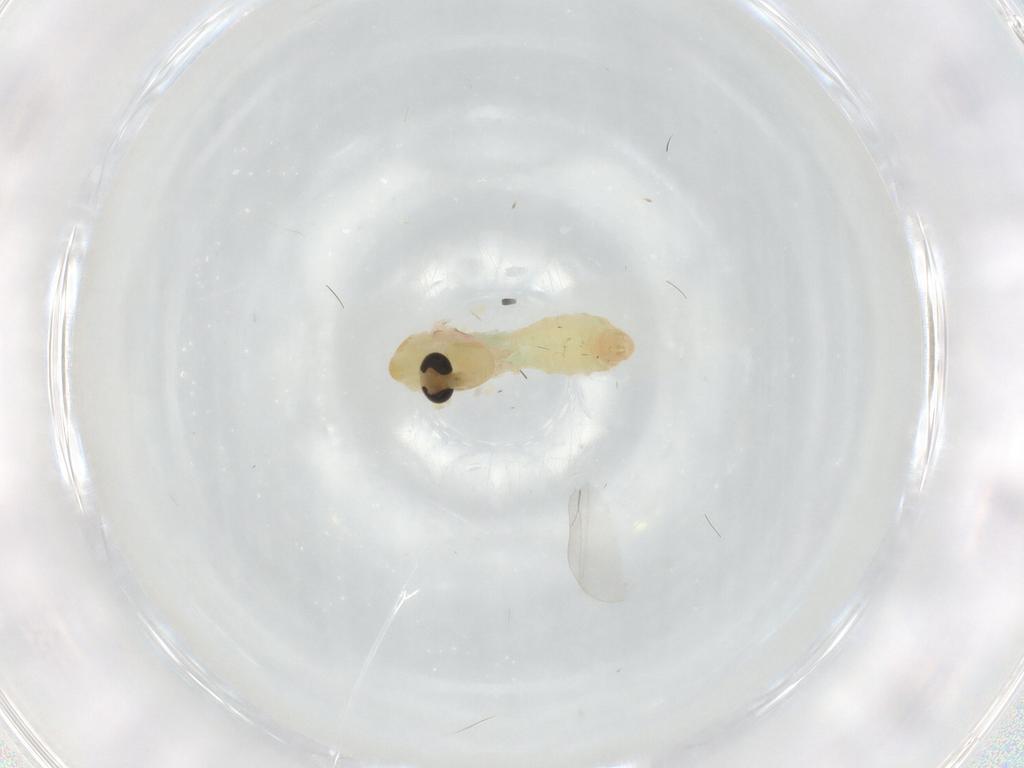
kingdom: Animalia
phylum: Arthropoda
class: Insecta
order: Diptera
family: Chironomidae
